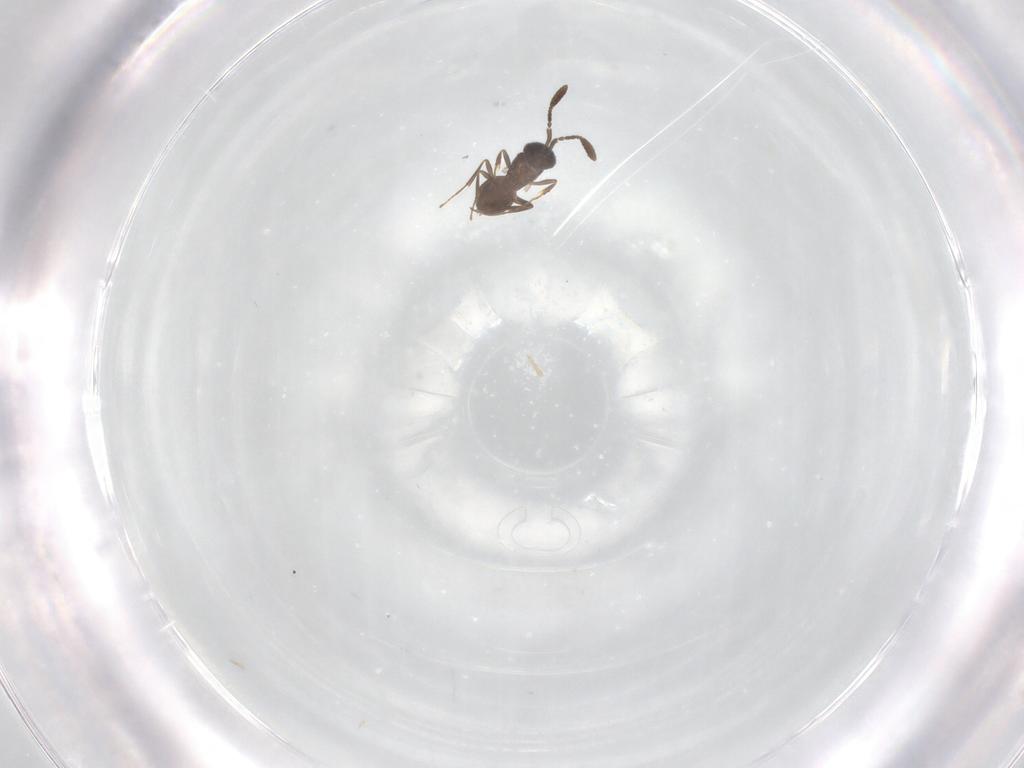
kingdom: Animalia
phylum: Arthropoda
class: Insecta
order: Hymenoptera
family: Scelionidae
